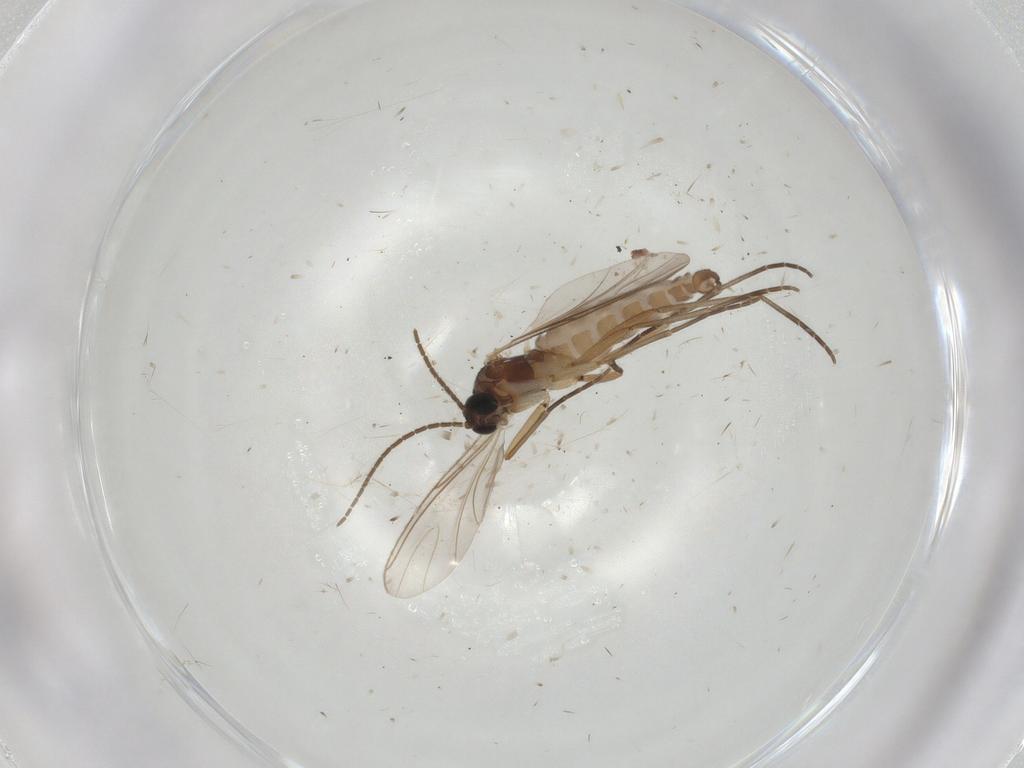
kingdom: Animalia
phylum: Arthropoda
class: Insecta
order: Diptera
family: Sciaridae
